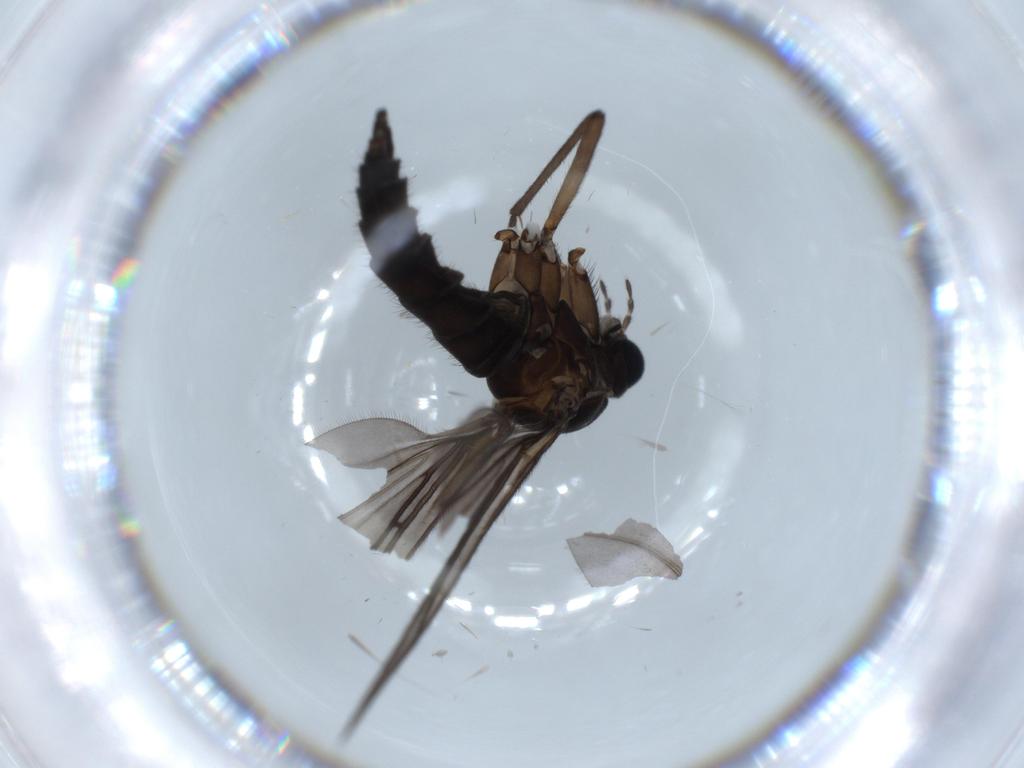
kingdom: Animalia
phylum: Arthropoda
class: Insecta
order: Diptera
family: Sciaridae
